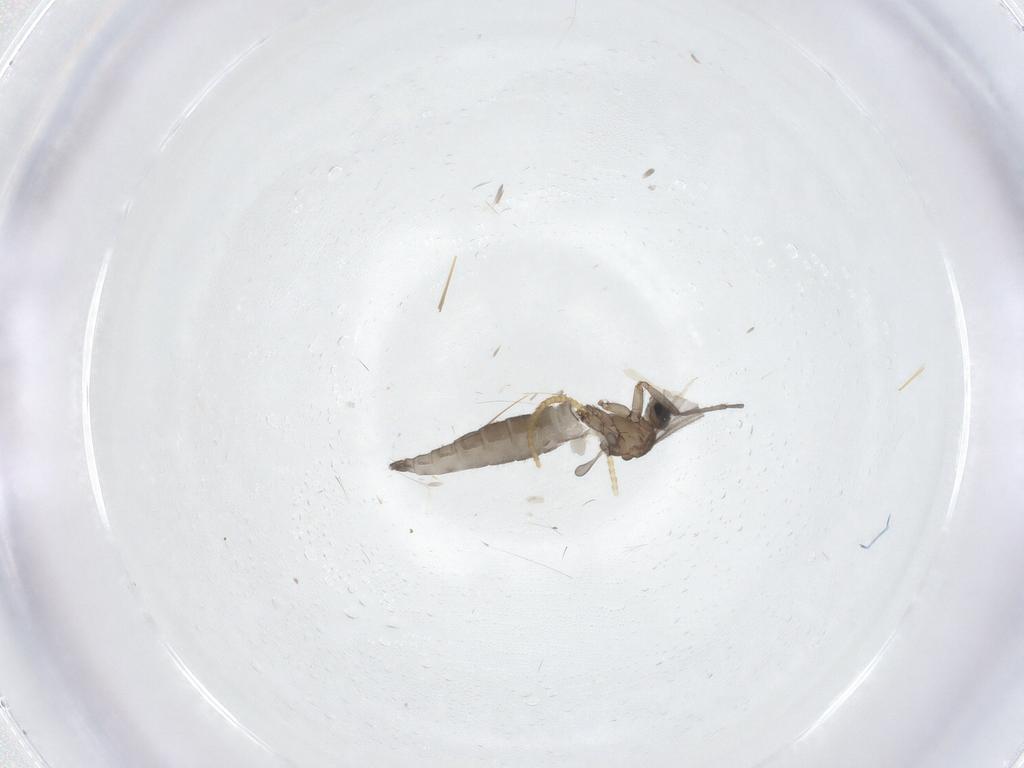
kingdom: Animalia
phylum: Arthropoda
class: Insecta
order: Diptera
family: Sciaridae
